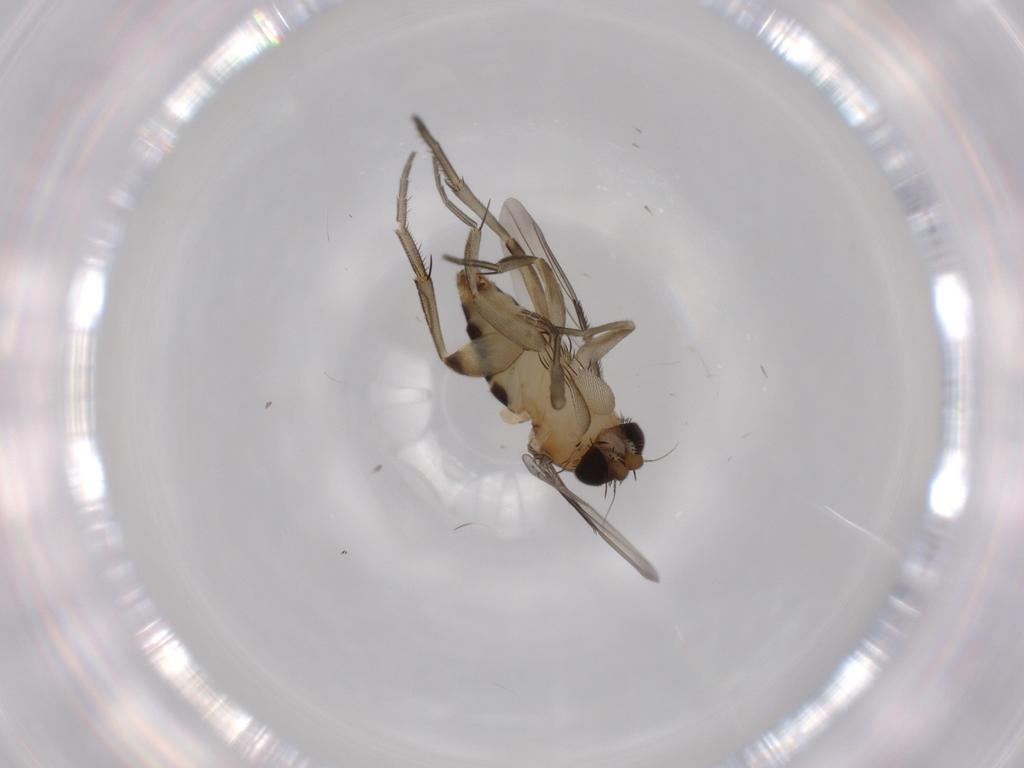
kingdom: Animalia
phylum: Arthropoda
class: Insecta
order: Diptera
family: Phoridae
